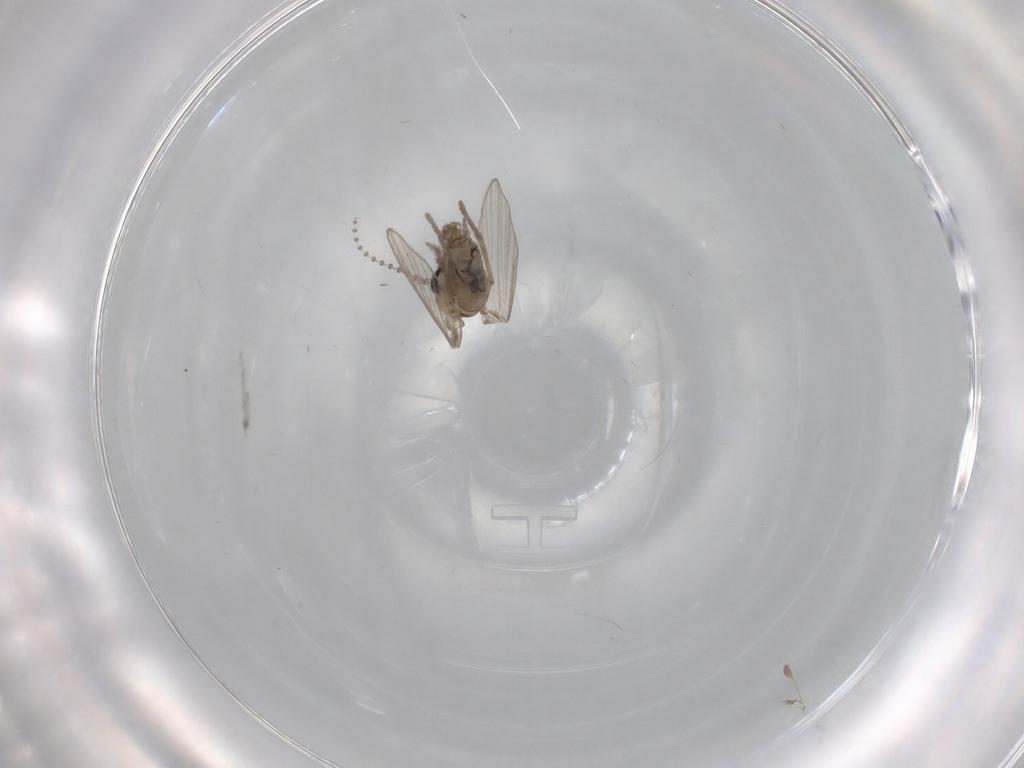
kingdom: Animalia
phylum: Arthropoda
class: Insecta
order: Diptera
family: Psychodidae
